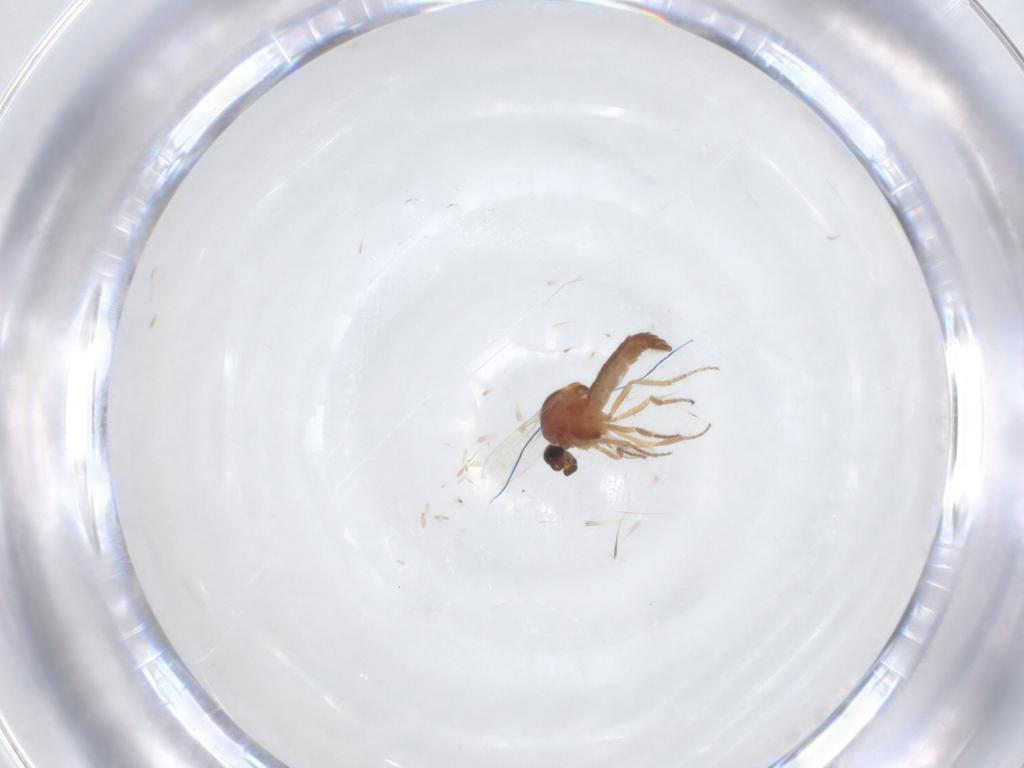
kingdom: Animalia
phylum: Arthropoda
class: Insecta
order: Diptera
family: Ceratopogonidae
